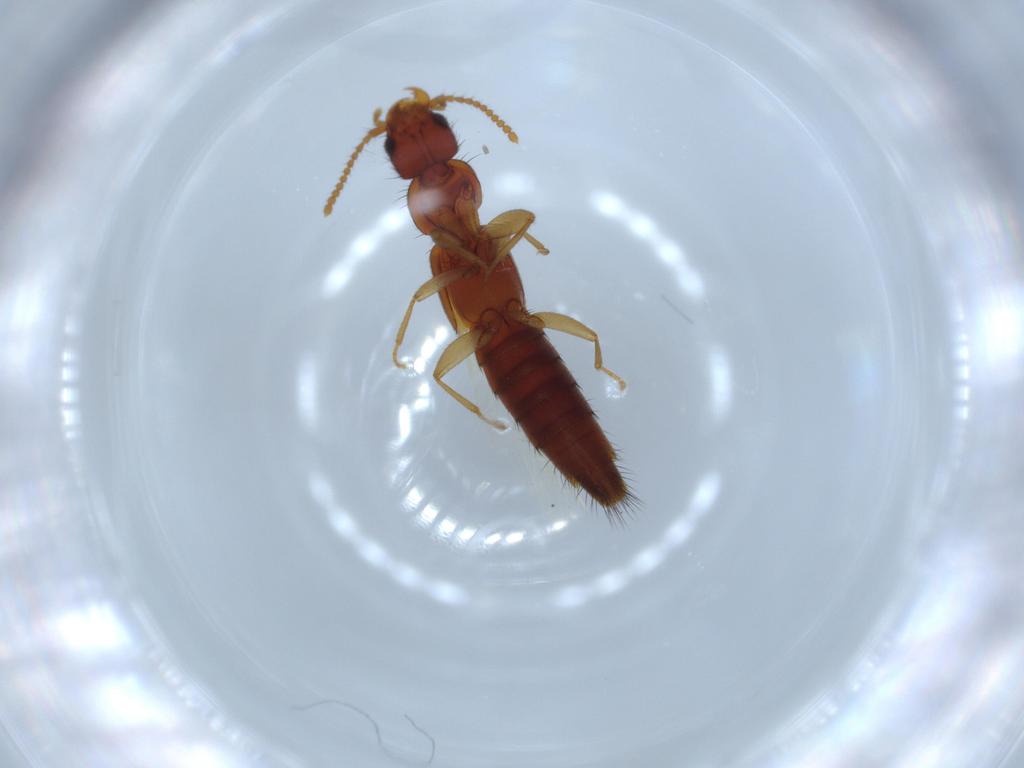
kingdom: Animalia
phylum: Arthropoda
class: Insecta
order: Coleoptera
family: Staphylinidae
